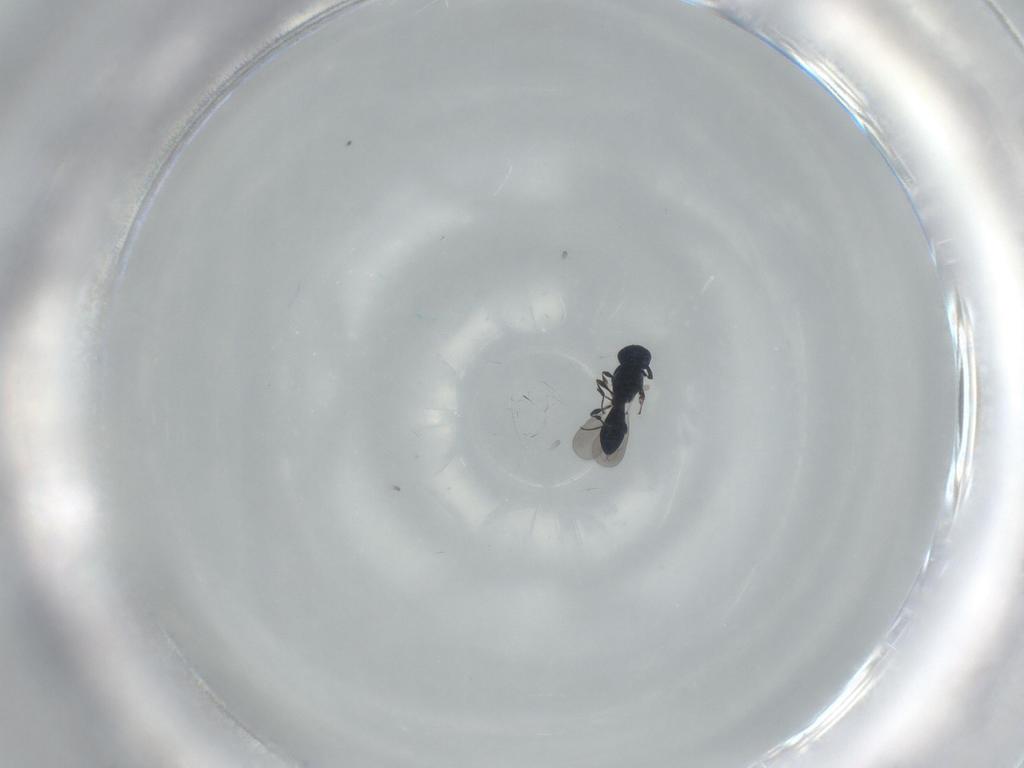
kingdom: Animalia
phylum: Arthropoda
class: Insecta
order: Hymenoptera
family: Platygastridae
